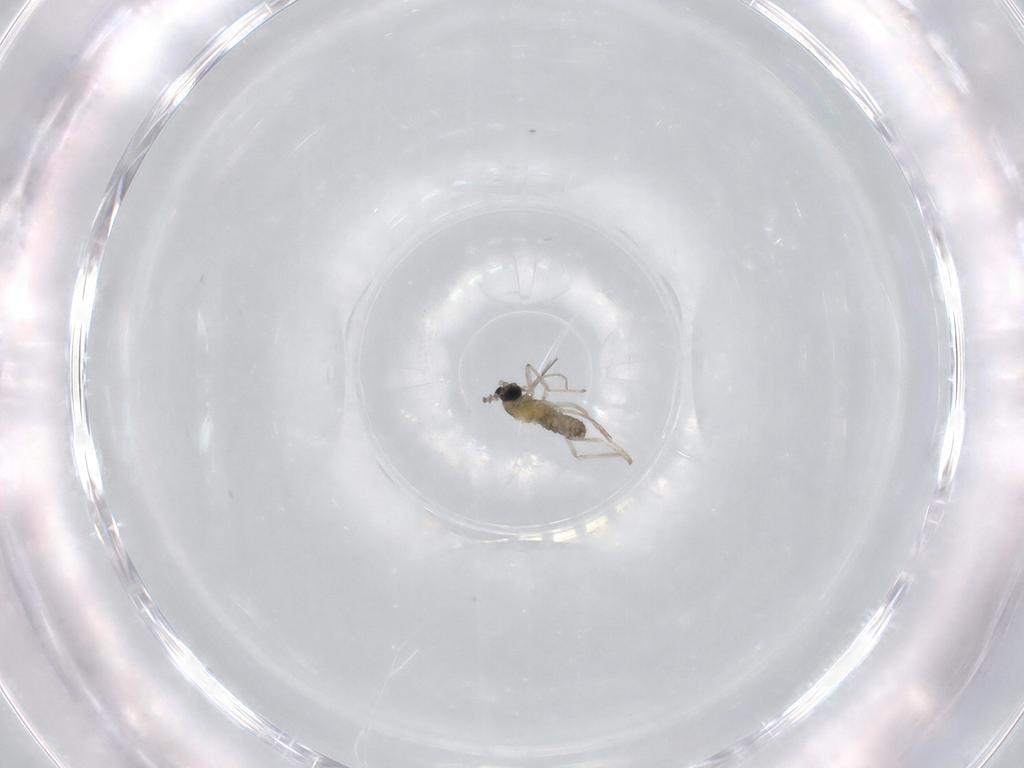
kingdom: Animalia
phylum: Arthropoda
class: Insecta
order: Diptera
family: Cecidomyiidae
